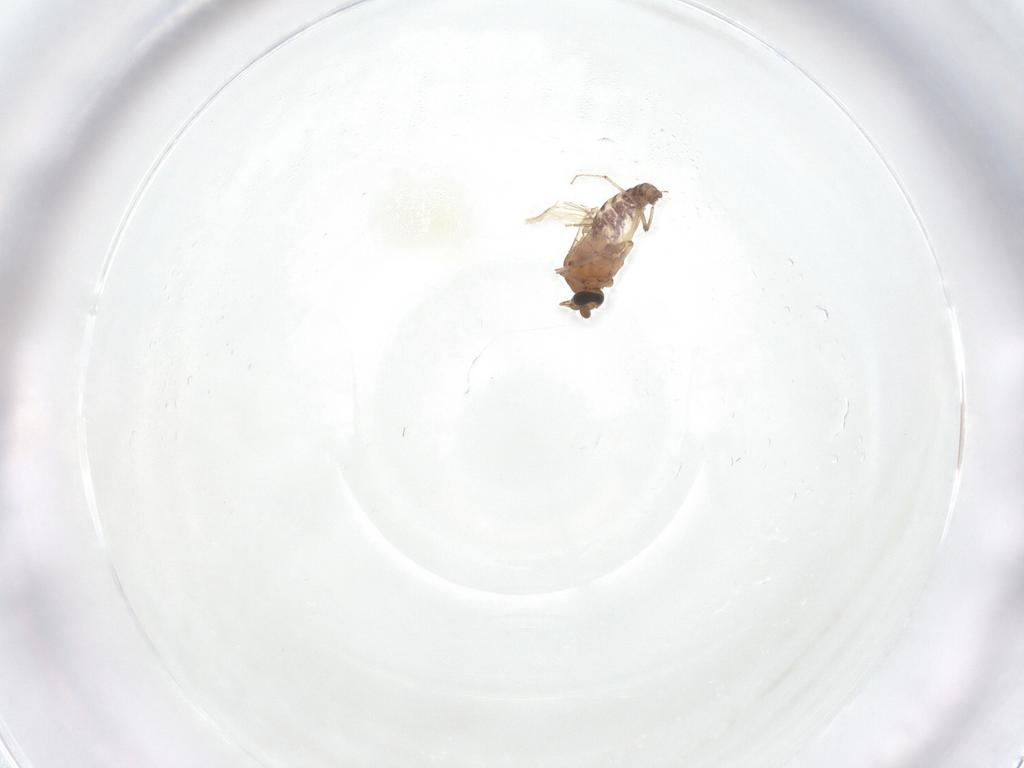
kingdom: Animalia
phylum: Arthropoda
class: Insecta
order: Diptera
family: Ceratopogonidae
